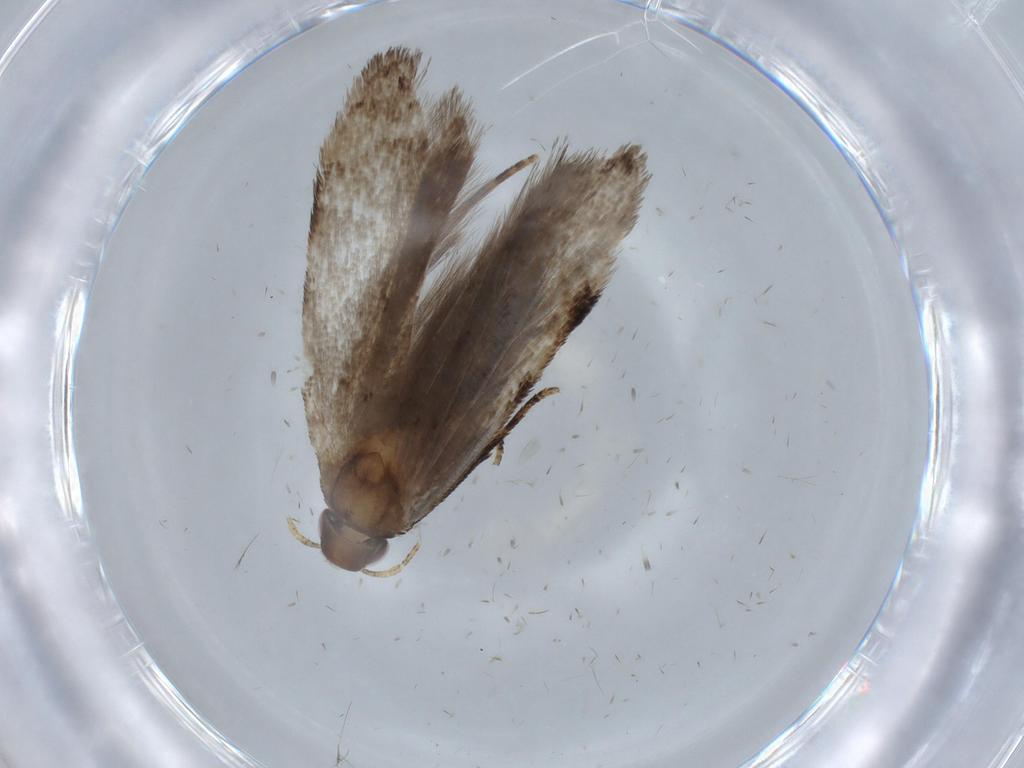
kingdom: Animalia
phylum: Arthropoda
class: Insecta
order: Lepidoptera
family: Gelechiidae
